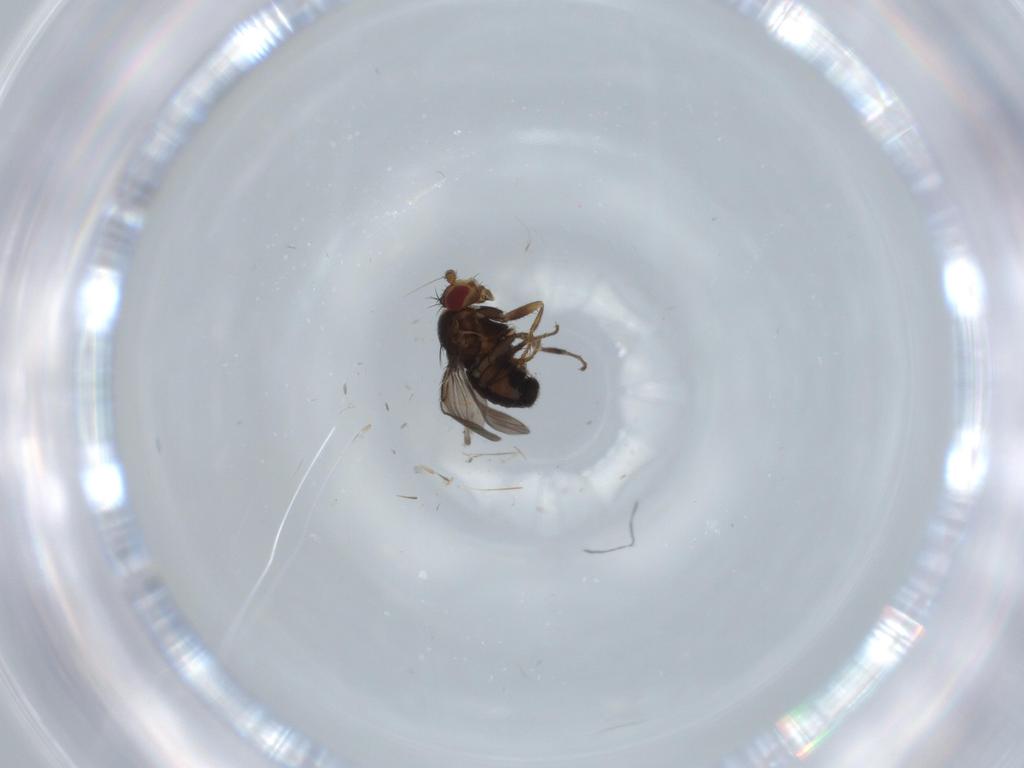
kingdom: Animalia
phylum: Arthropoda
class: Insecta
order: Diptera
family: Sphaeroceridae
